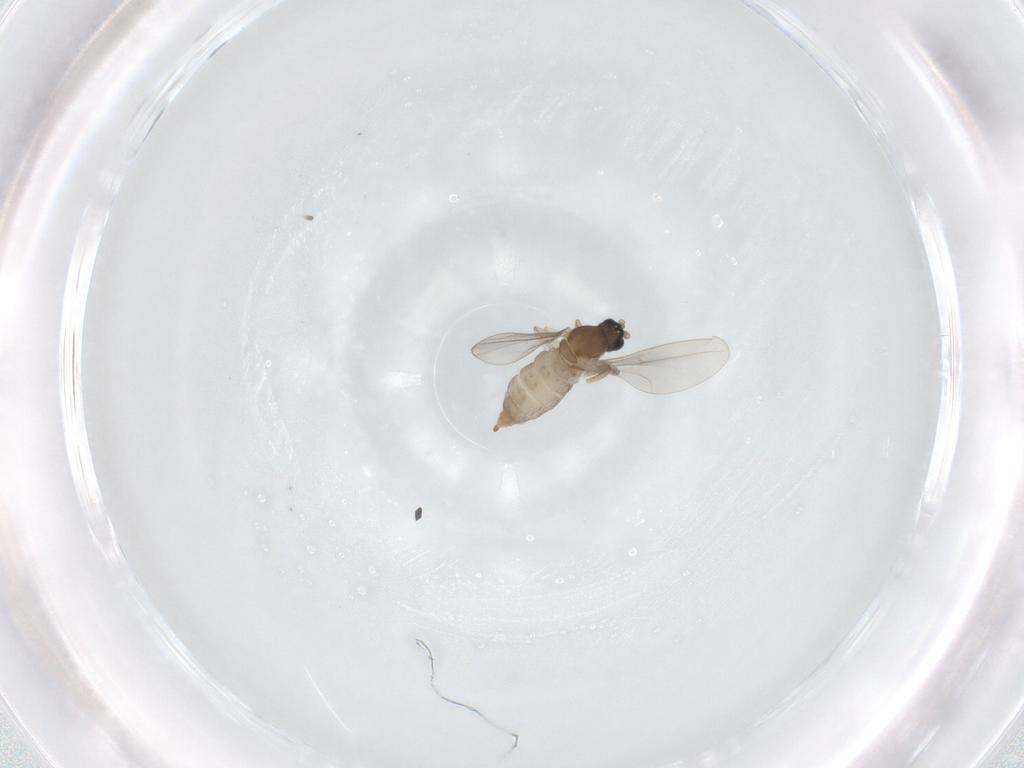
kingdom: Animalia
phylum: Arthropoda
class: Insecta
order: Diptera
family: Cecidomyiidae
